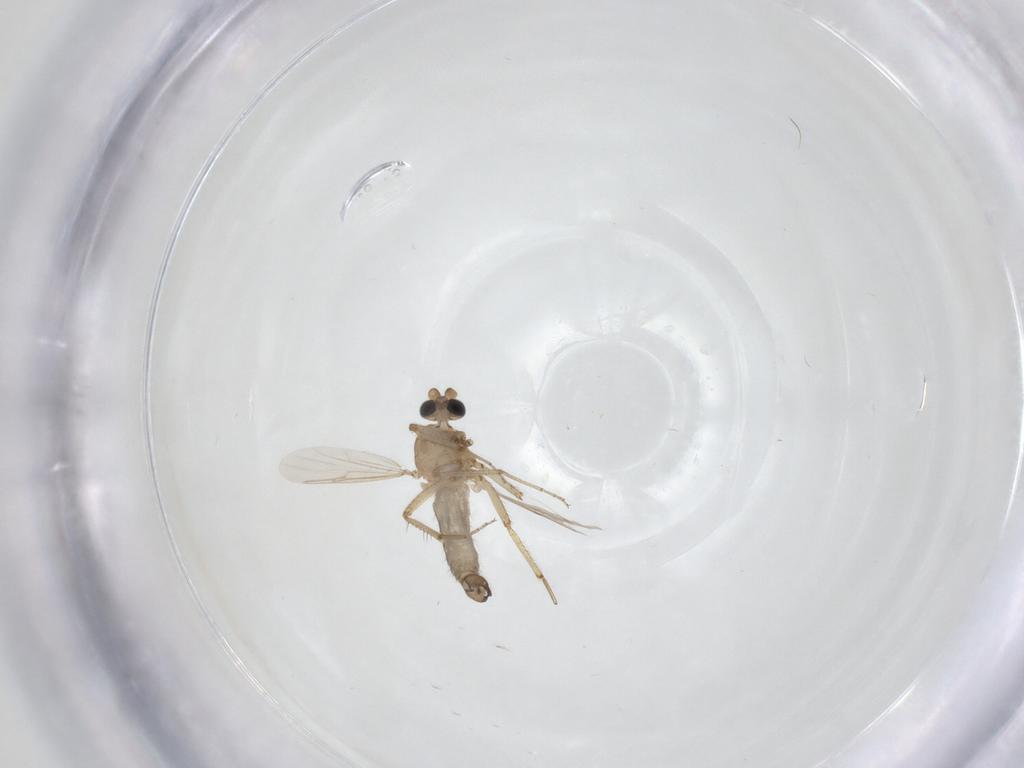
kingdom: Animalia
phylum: Arthropoda
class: Insecta
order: Diptera
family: Ceratopogonidae
